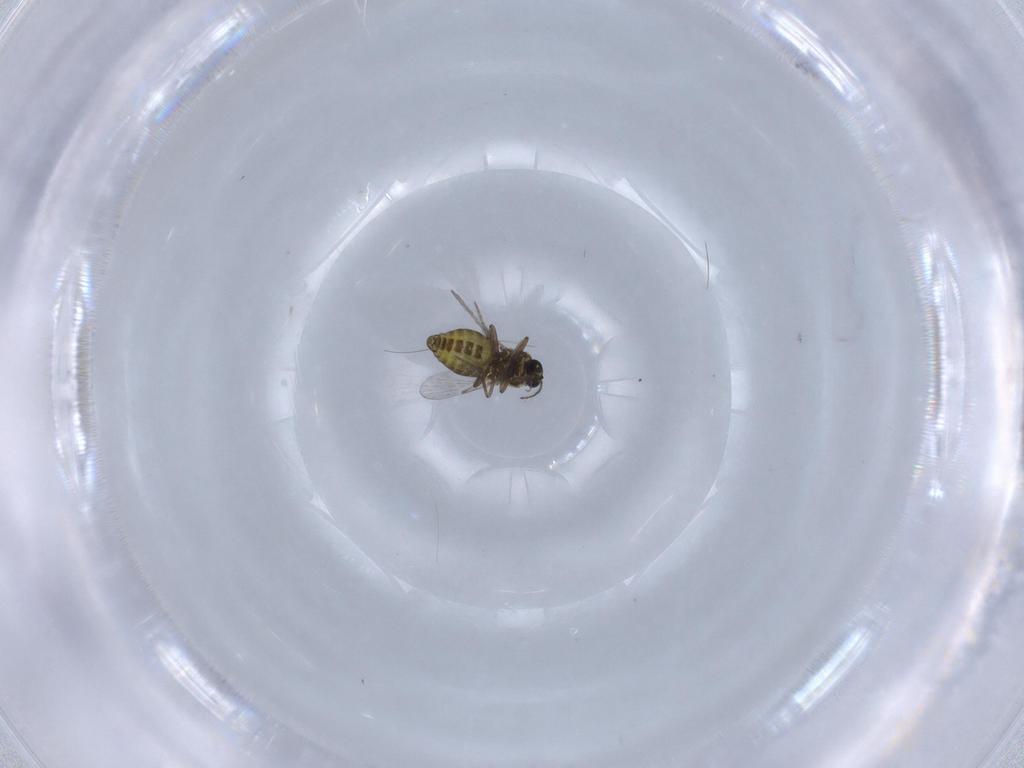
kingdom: Animalia
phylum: Arthropoda
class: Insecta
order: Diptera
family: Cecidomyiidae
